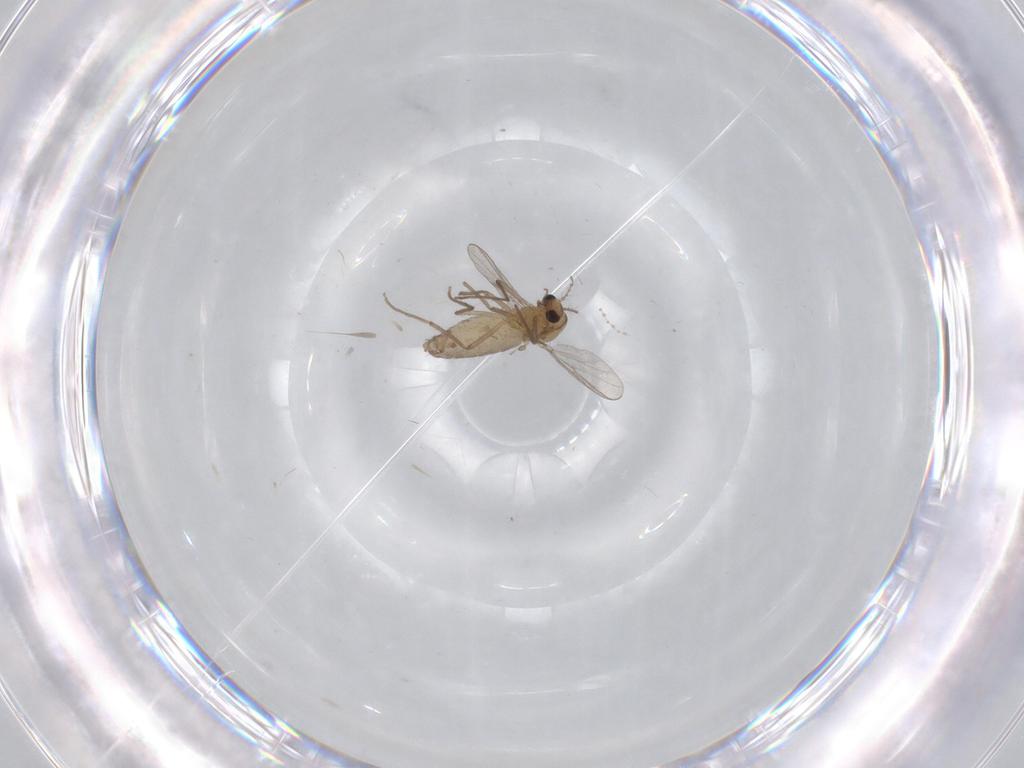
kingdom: Animalia
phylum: Arthropoda
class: Insecta
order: Diptera
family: Chironomidae
